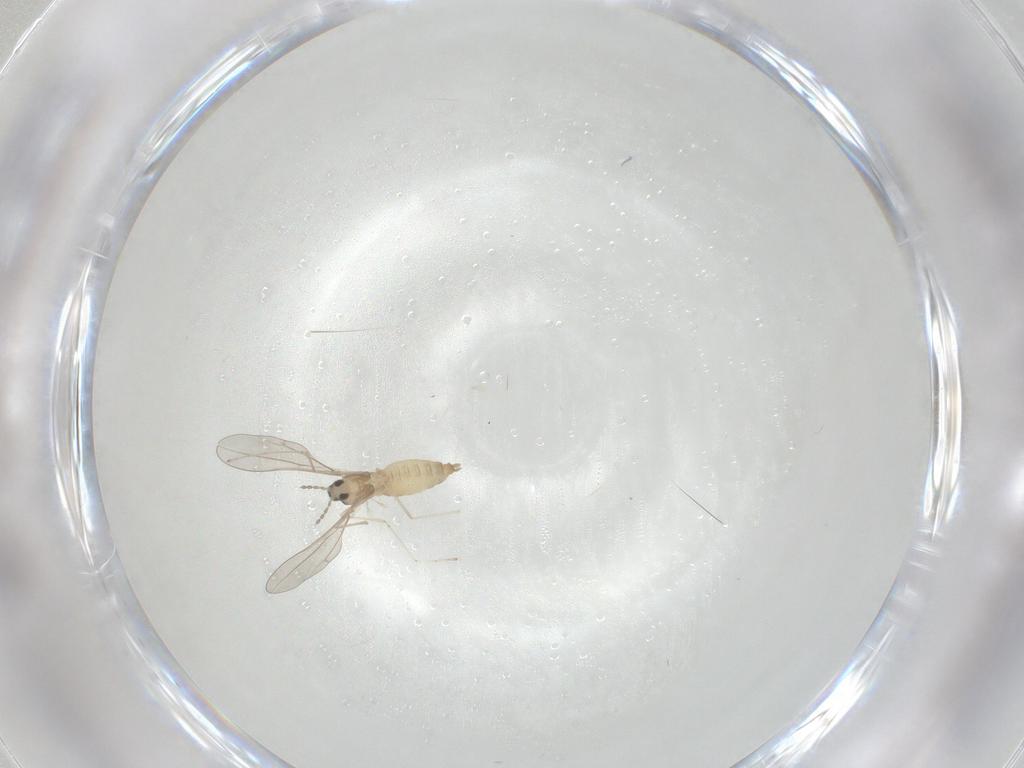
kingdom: Animalia
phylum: Arthropoda
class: Insecta
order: Diptera
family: Cecidomyiidae
